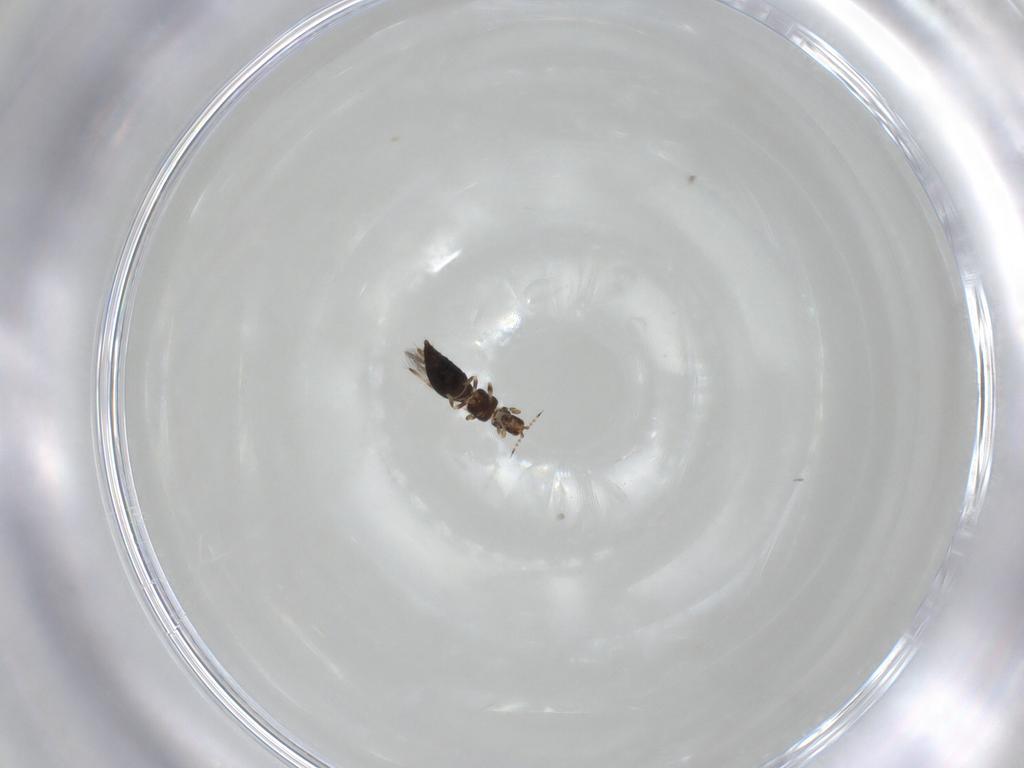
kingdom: Animalia
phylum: Arthropoda
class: Insecta
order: Thysanoptera
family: Thripidae
